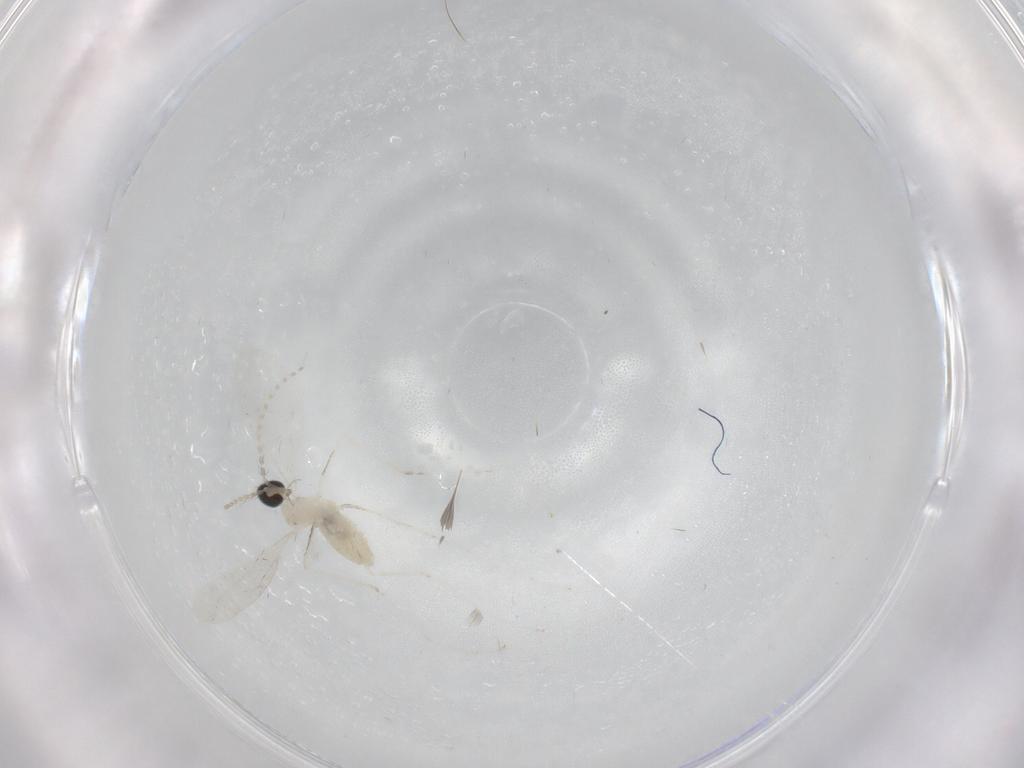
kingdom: Animalia
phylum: Arthropoda
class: Insecta
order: Diptera
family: Cecidomyiidae
